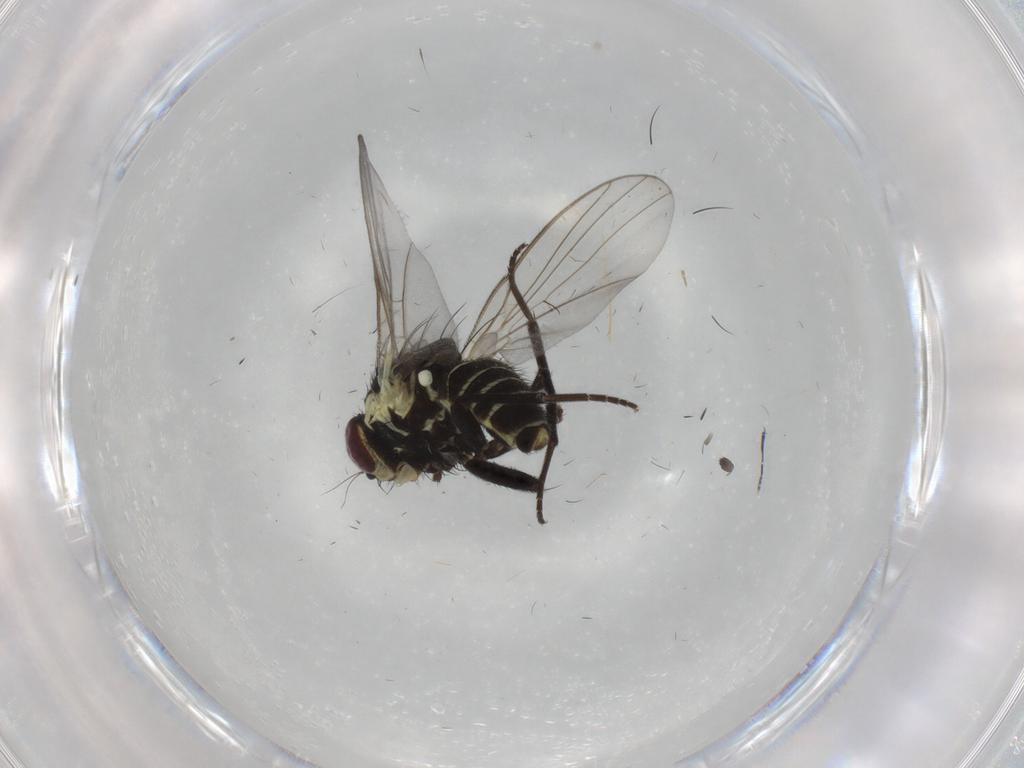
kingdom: Animalia
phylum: Arthropoda
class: Insecta
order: Diptera
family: Agromyzidae
